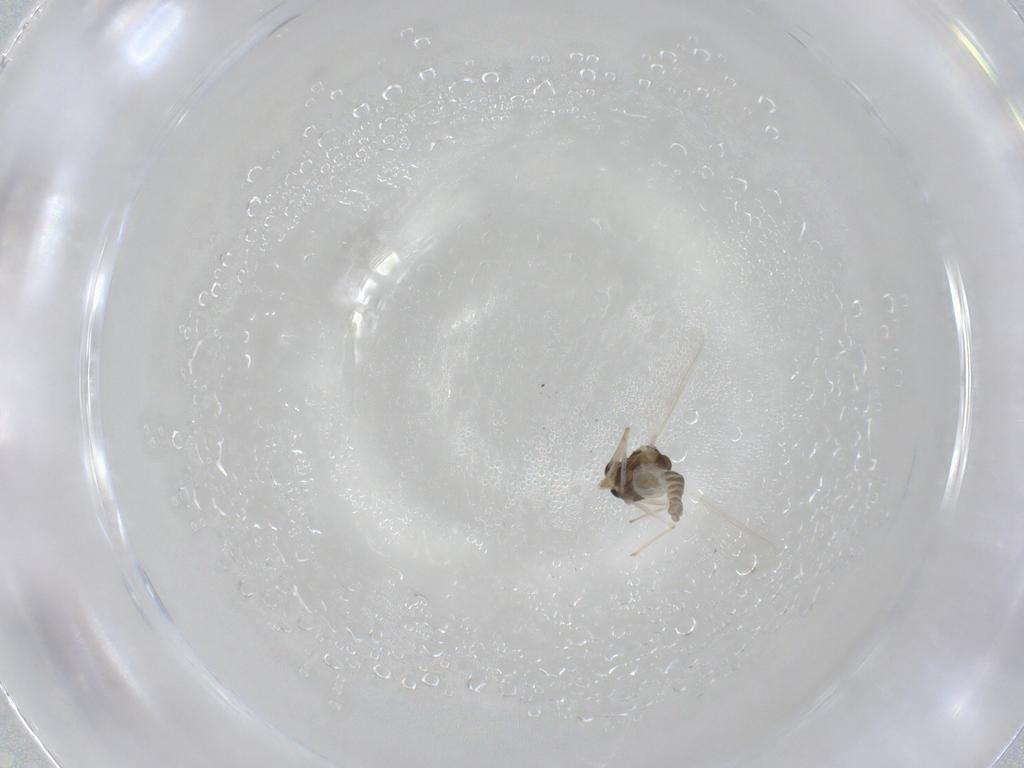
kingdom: Animalia
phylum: Arthropoda
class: Insecta
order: Diptera
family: Chironomidae
